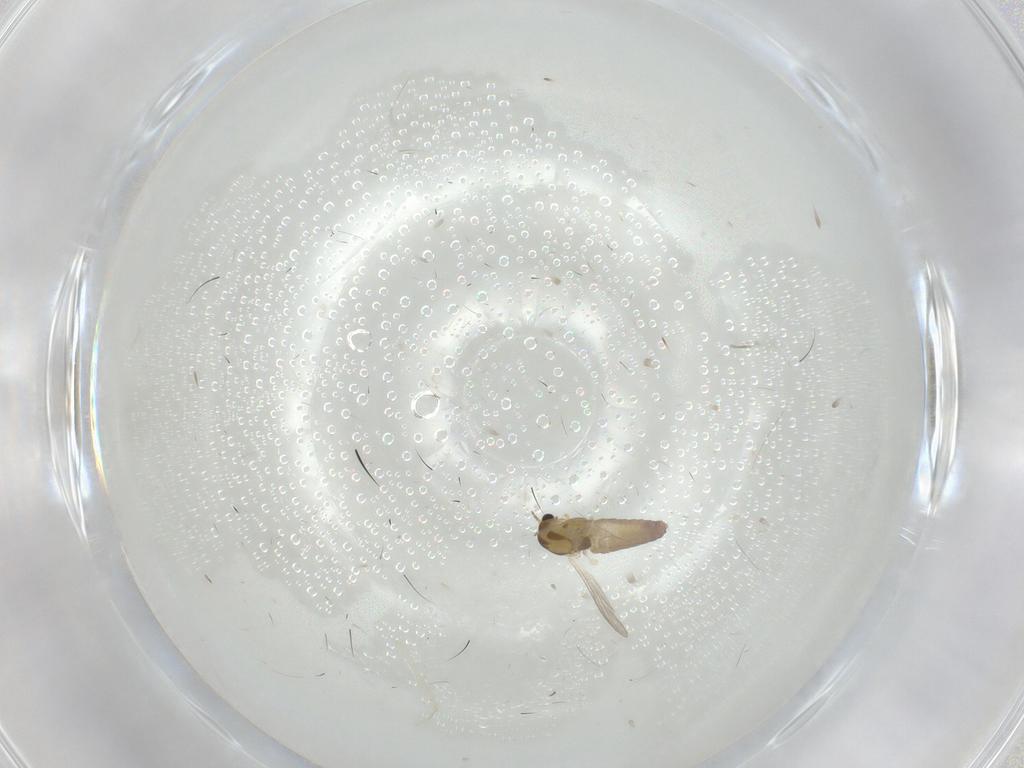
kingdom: Animalia
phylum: Arthropoda
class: Insecta
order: Diptera
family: Chironomidae
